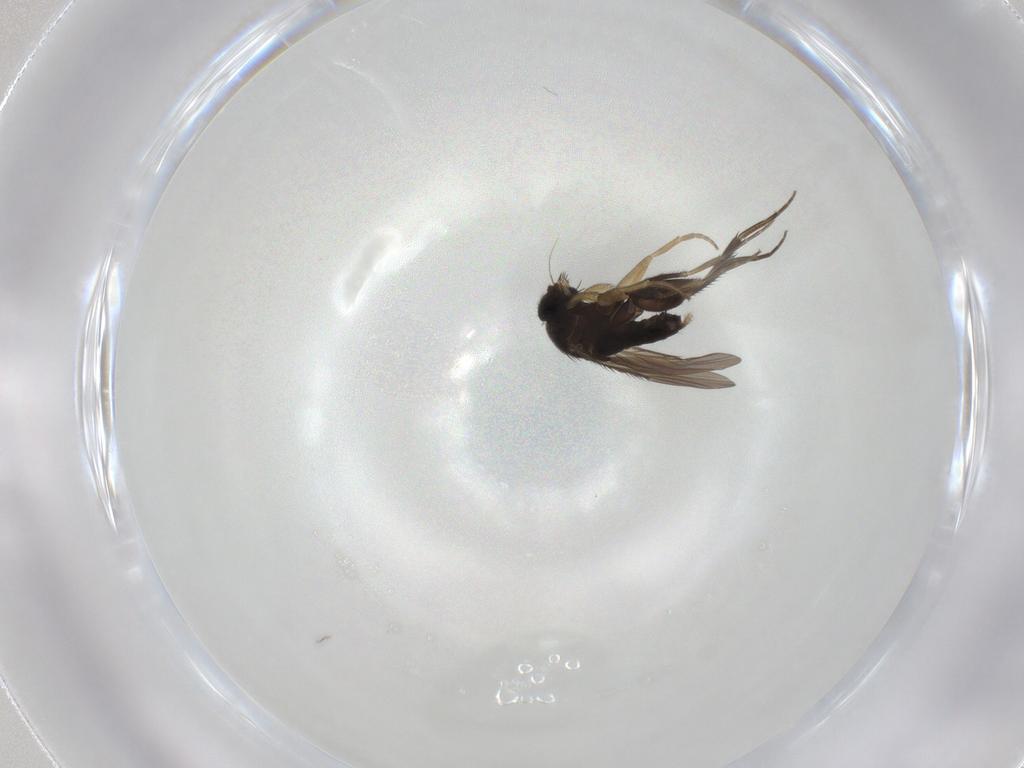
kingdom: Animalia
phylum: Arthropoda
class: Insecta
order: Diptera
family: Phoridae
